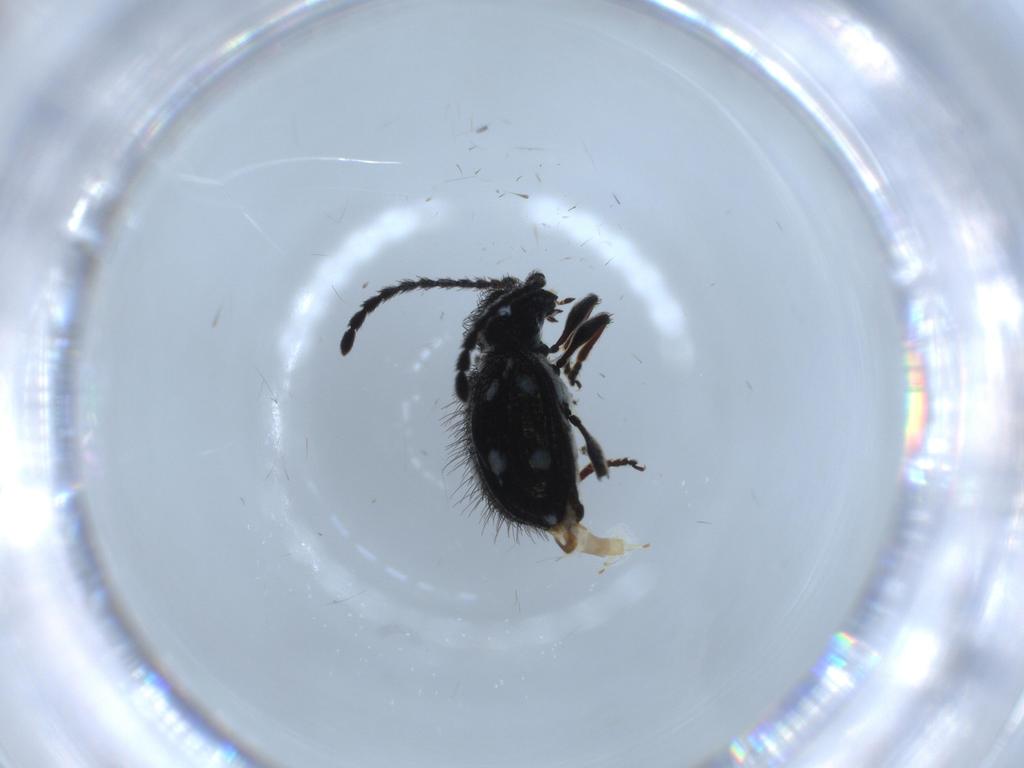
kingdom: Animalia
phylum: Arthropoda
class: Insecta
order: Coleoptera
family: Ptinidae
